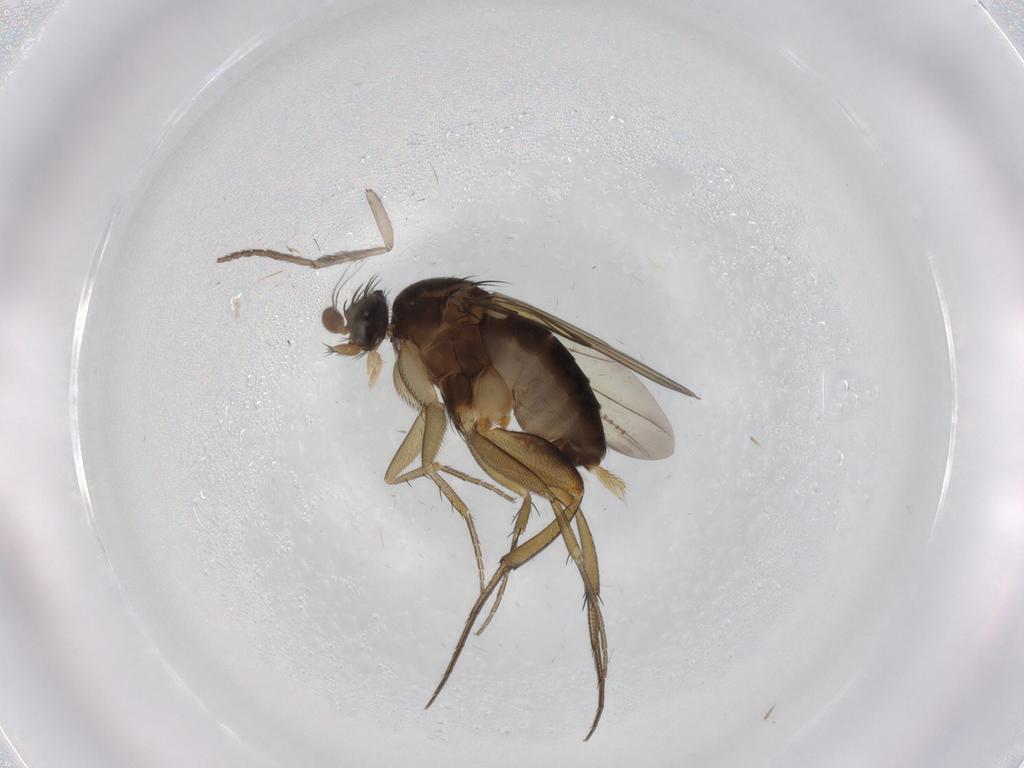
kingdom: Animalia
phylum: Arthropoda
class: Insecta
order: Diptera
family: Phoridae
